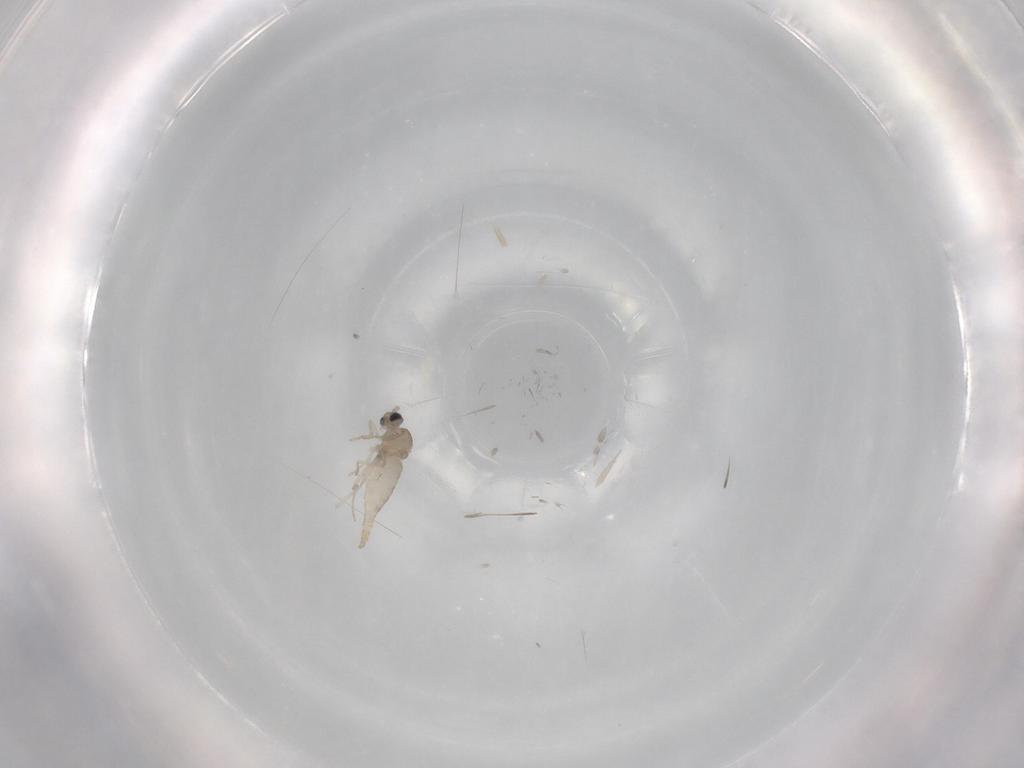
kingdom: Animalia
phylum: Arthropoda
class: Insecta
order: Diptera
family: Cecidomyiidae
